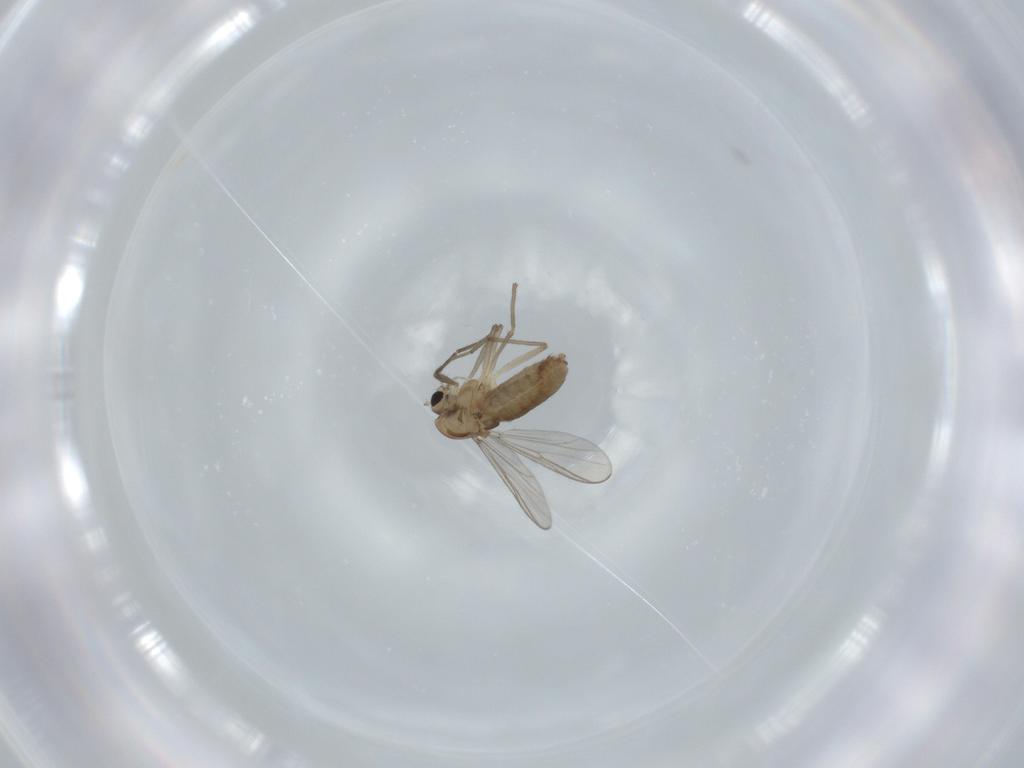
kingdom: Animalia
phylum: Arthropoda
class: Insecta
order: Diptera
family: Chironomidae
